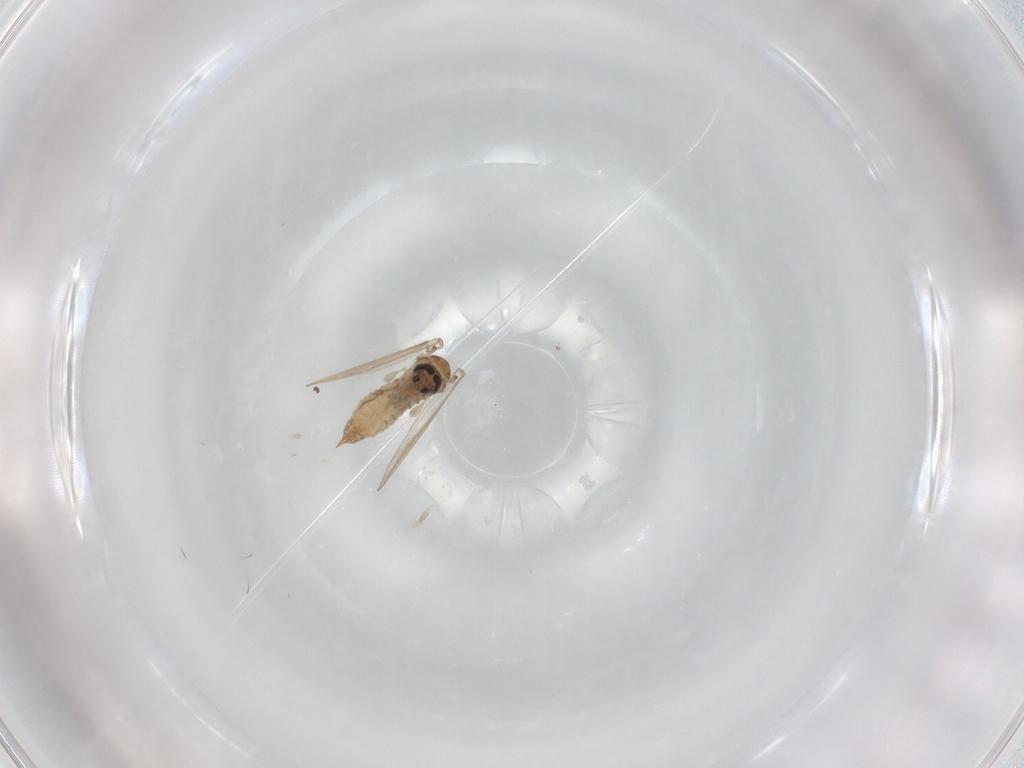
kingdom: Animalia
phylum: Arthropoda
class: Insecta
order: Diptera
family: Psychodidae
